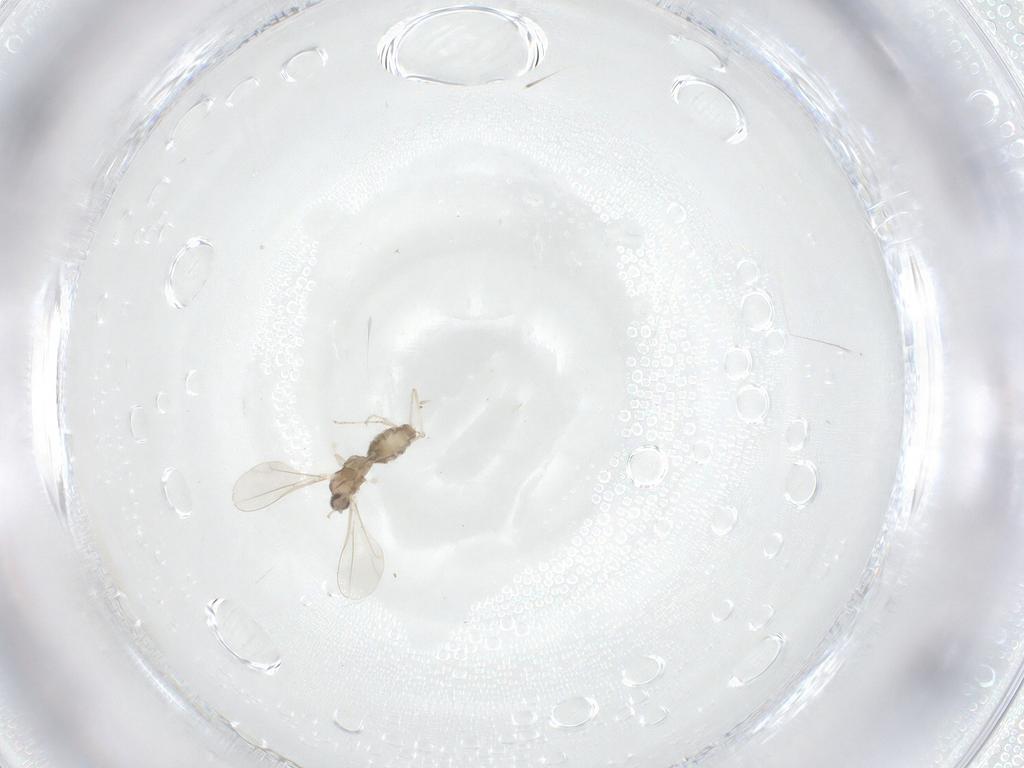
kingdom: Animalia
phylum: Arthropoda
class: Insecta
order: Diptera
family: Cecidomyiidae
